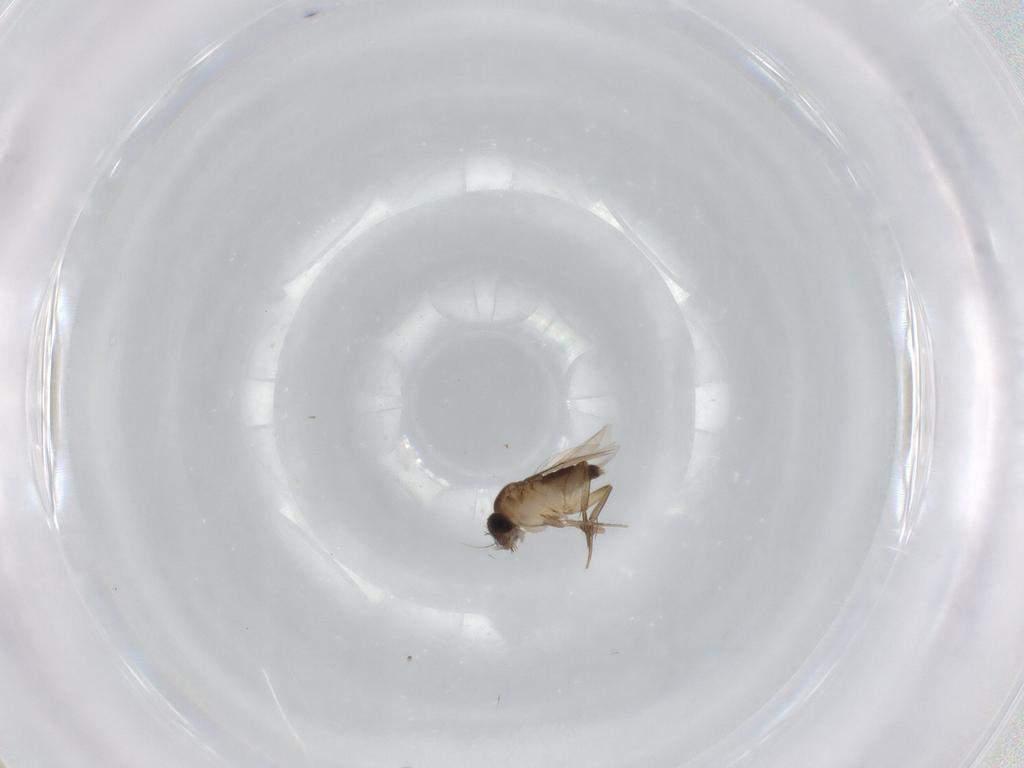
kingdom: Animalia
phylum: Arthropoda
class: Insecta
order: Diptera
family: Phoridae
